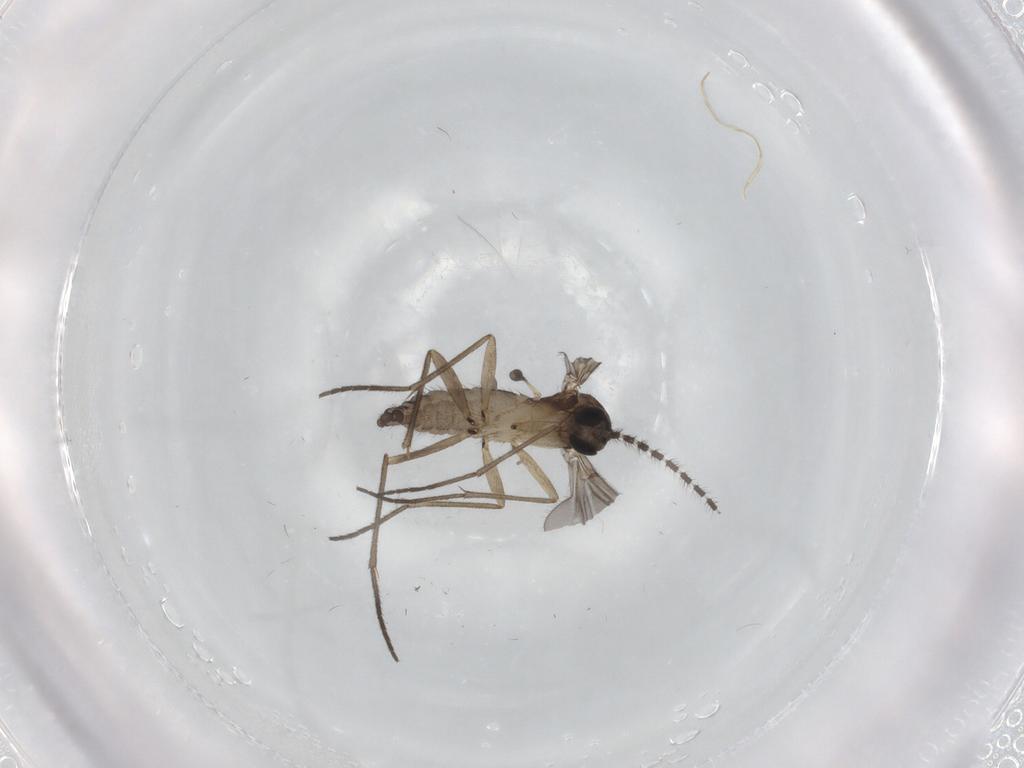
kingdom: Animalia
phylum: Arthropoda
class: Insecta
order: Diptera
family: Sciaridae
